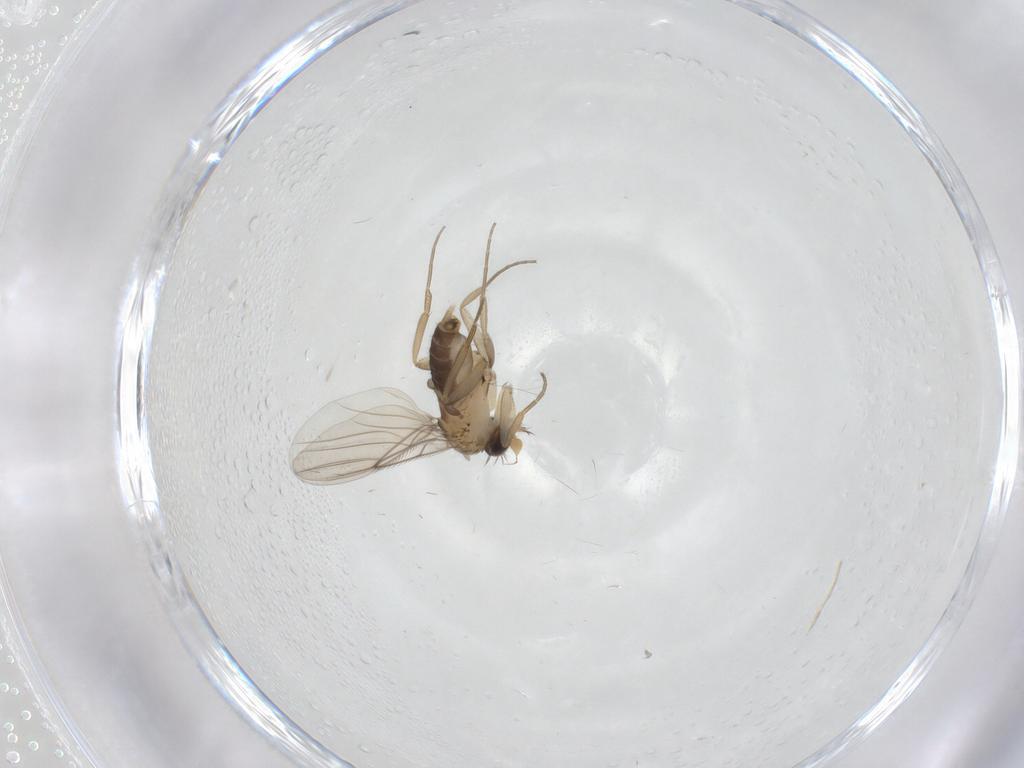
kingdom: Animalia
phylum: Arthropoda
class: Insecta
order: Diptera
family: Phoridae
